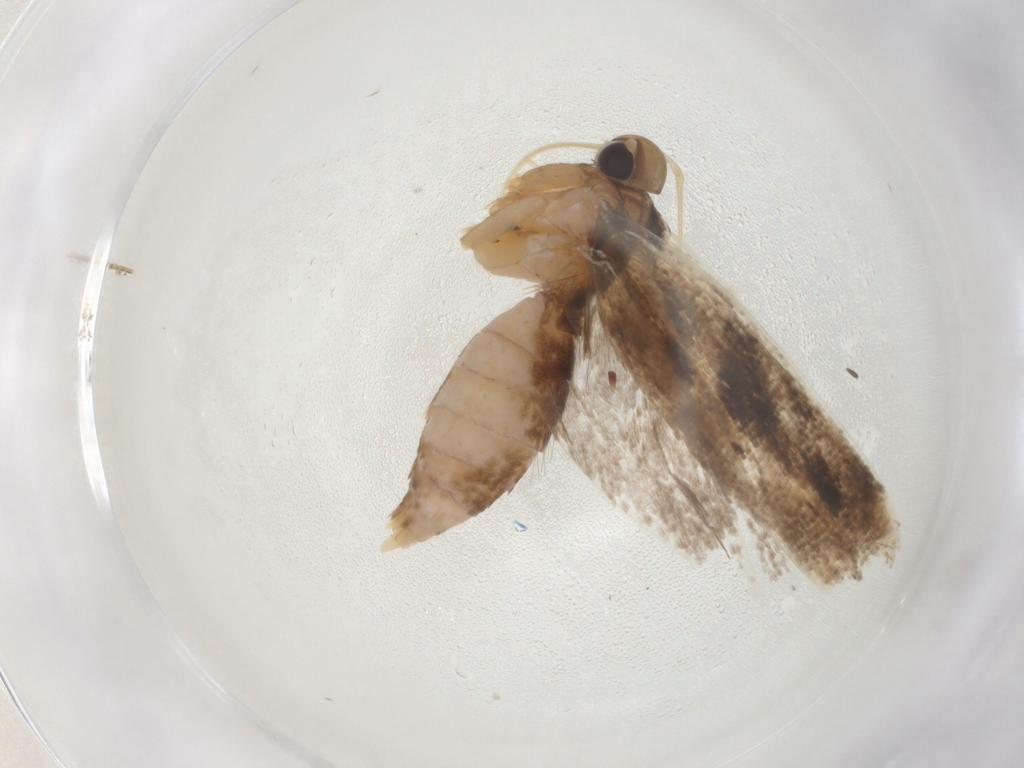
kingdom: Animalia
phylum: Arthropoda
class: Insecta
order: Lepidoptera
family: Gelechiidae
